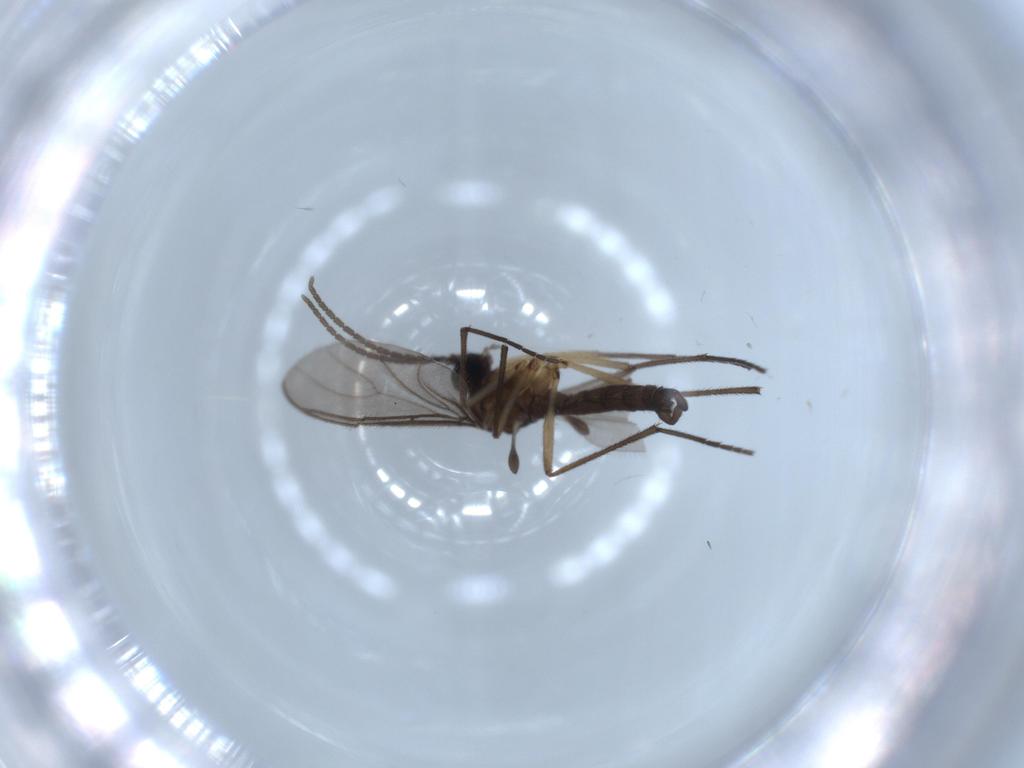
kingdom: Animalia
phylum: Arthropoda
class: Insecta
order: Diptera
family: Sciaridae
